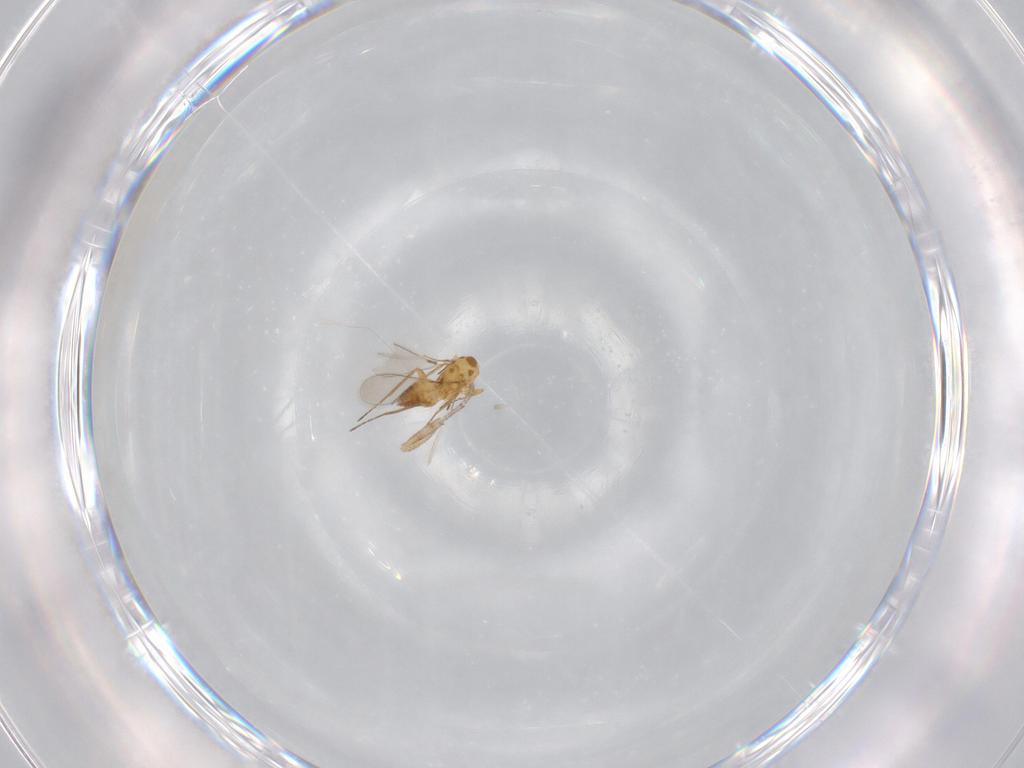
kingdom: Animalia
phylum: Arthropoda
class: Insecta
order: Hymenoptera
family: Mymaridae
